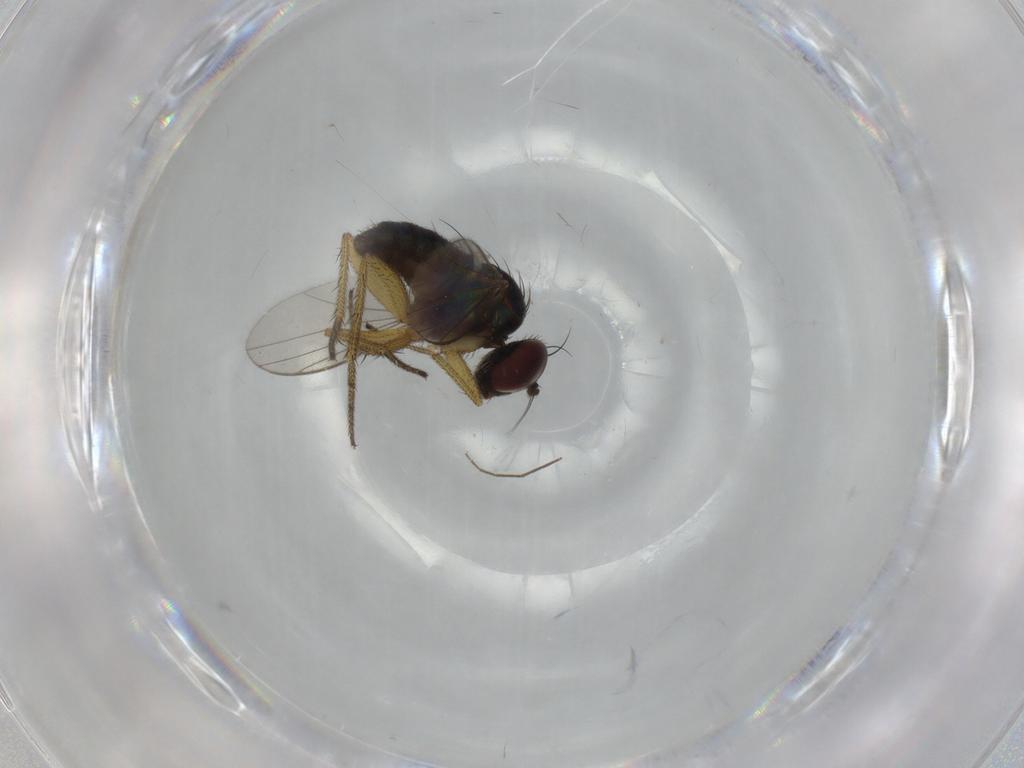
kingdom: Animalia
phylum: Arthropoda
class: Insecta
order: Diptera
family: Dolichopodidae
